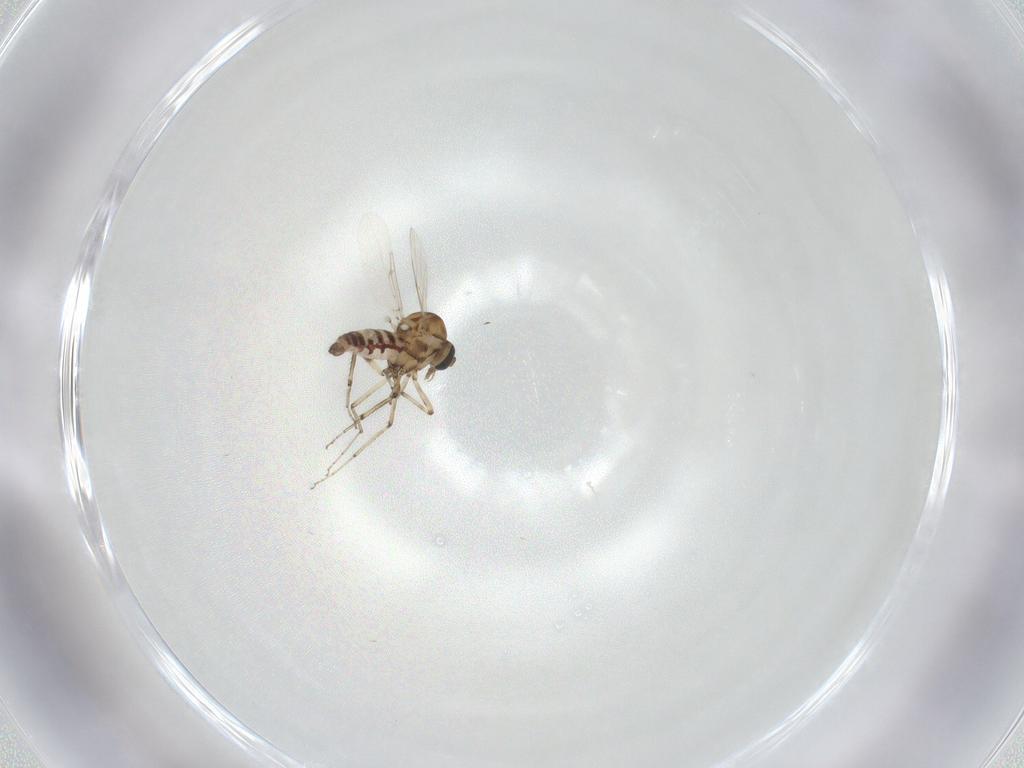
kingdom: Animalia
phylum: Arthropoda
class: Insecta
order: Diptera
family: Ceratopogonidae
